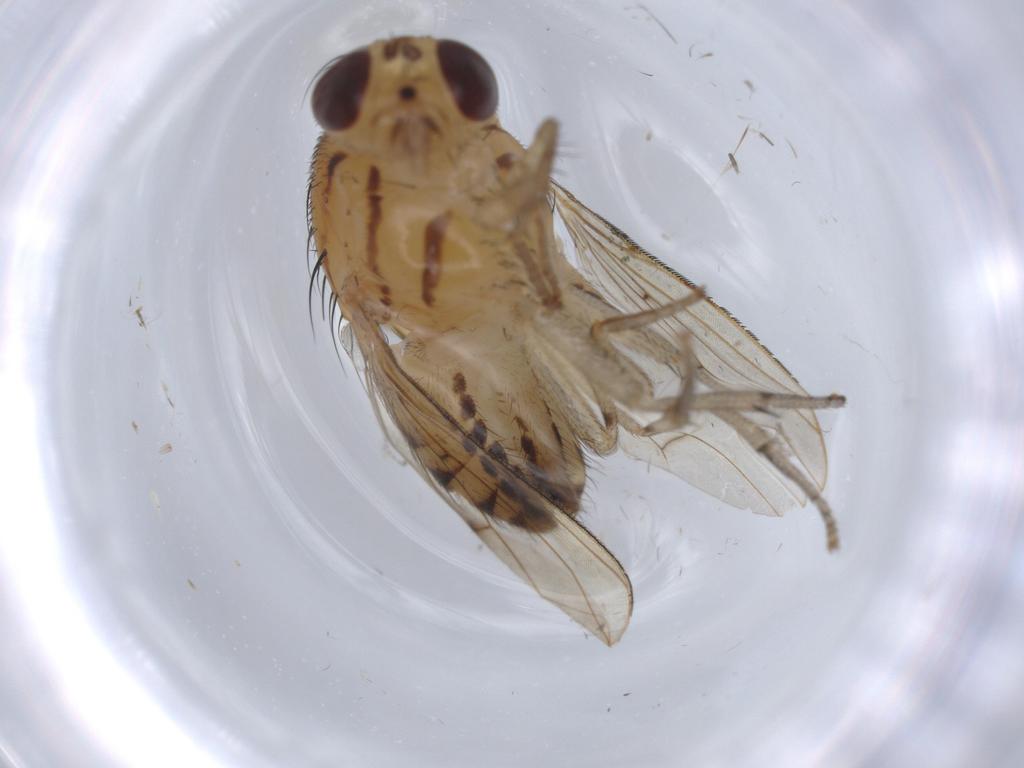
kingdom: Animalia
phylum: Arthropoda
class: Insecta
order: Diptera
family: Lauxaniidae
